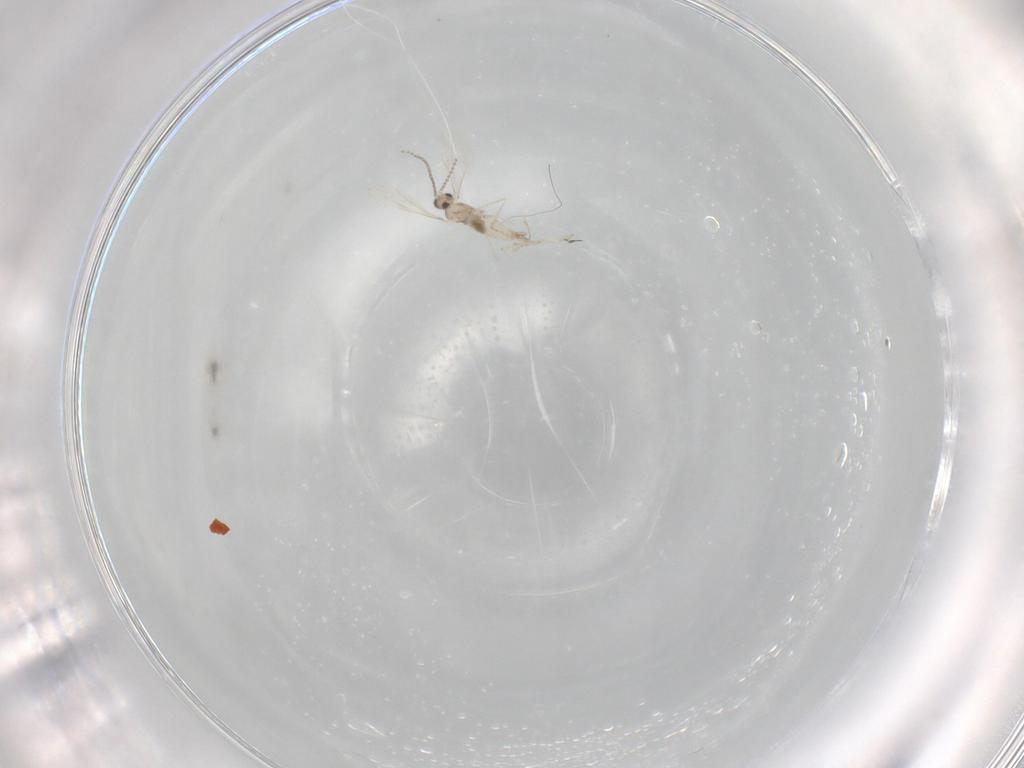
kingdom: Animalia
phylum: Arthropoda
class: Insecta
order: Diptera
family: Cecidomyiidae
